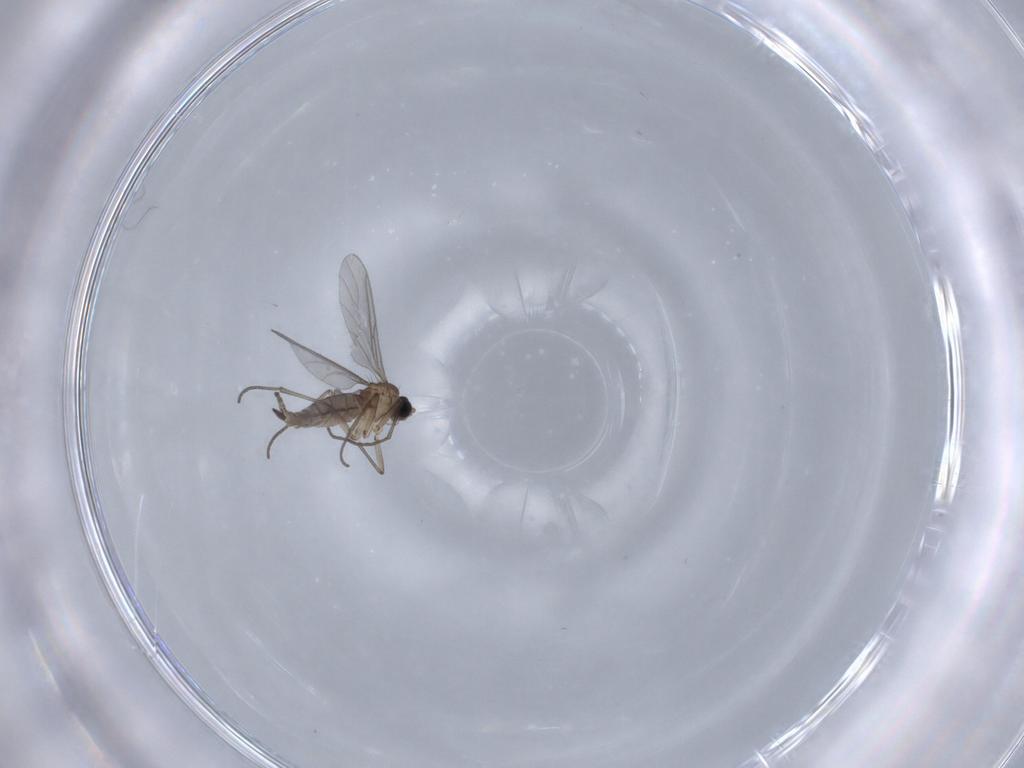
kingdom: Animalia
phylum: Arthropoda
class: Insecta
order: Diptera
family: Sciaridae
